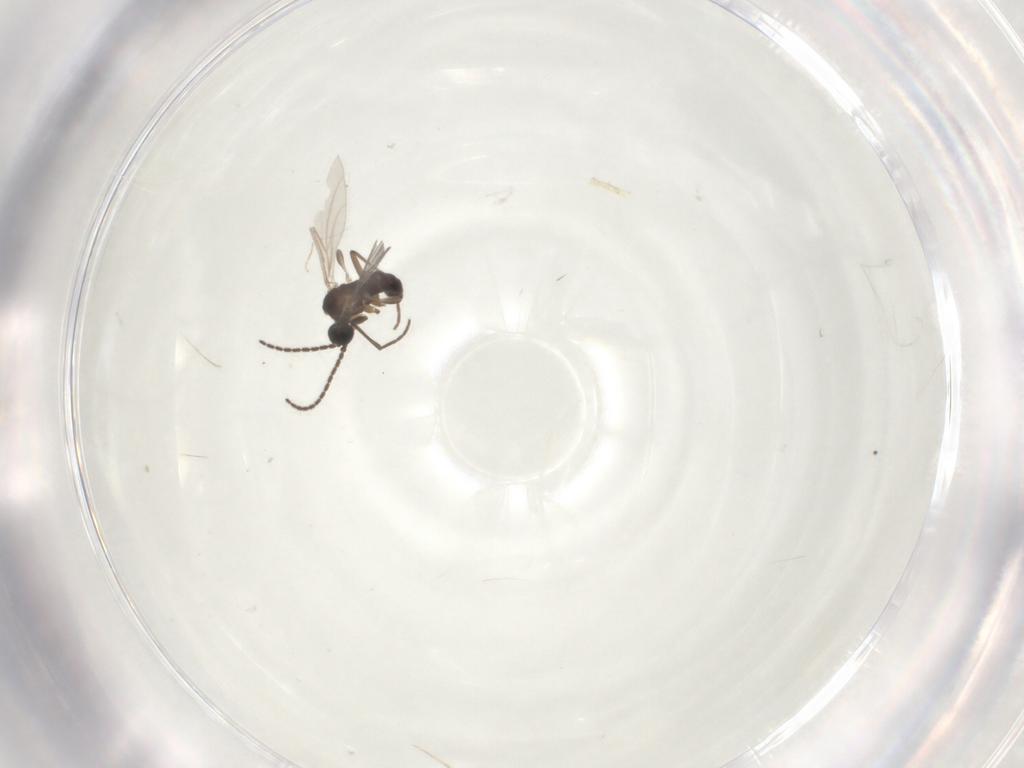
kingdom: Animalia
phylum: Arthropoda
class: Insecta
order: Diptera
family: Sciaridae
